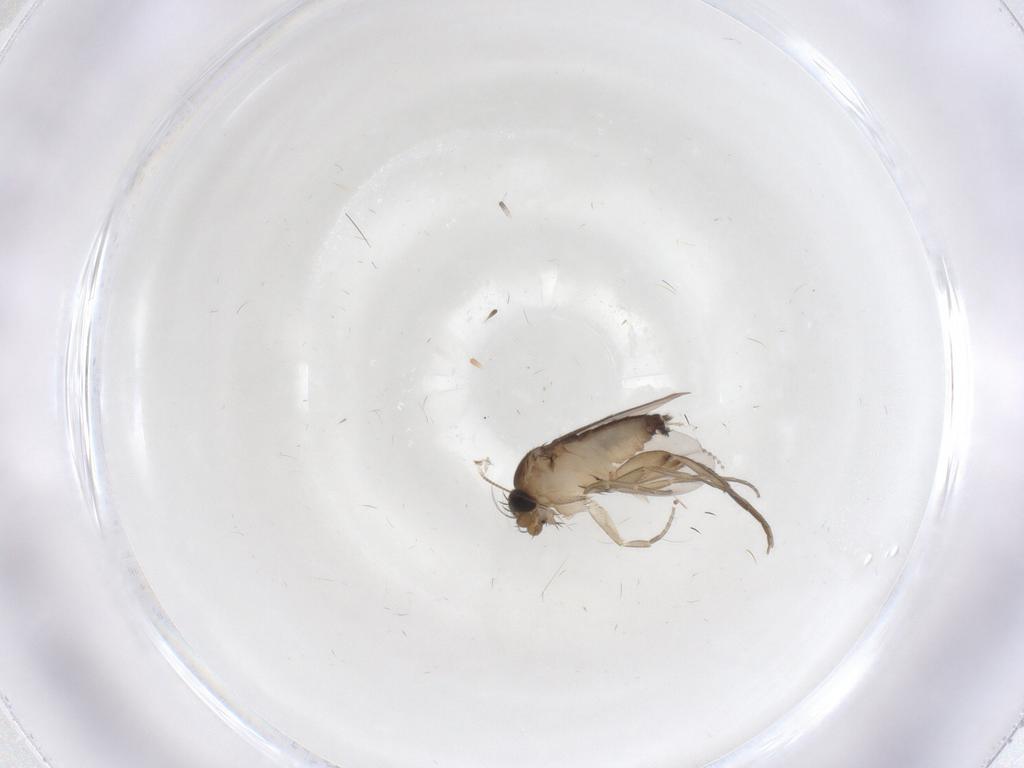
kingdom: Animalia
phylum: Arthropoda
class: Insecta
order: Diptera
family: Phoridae
